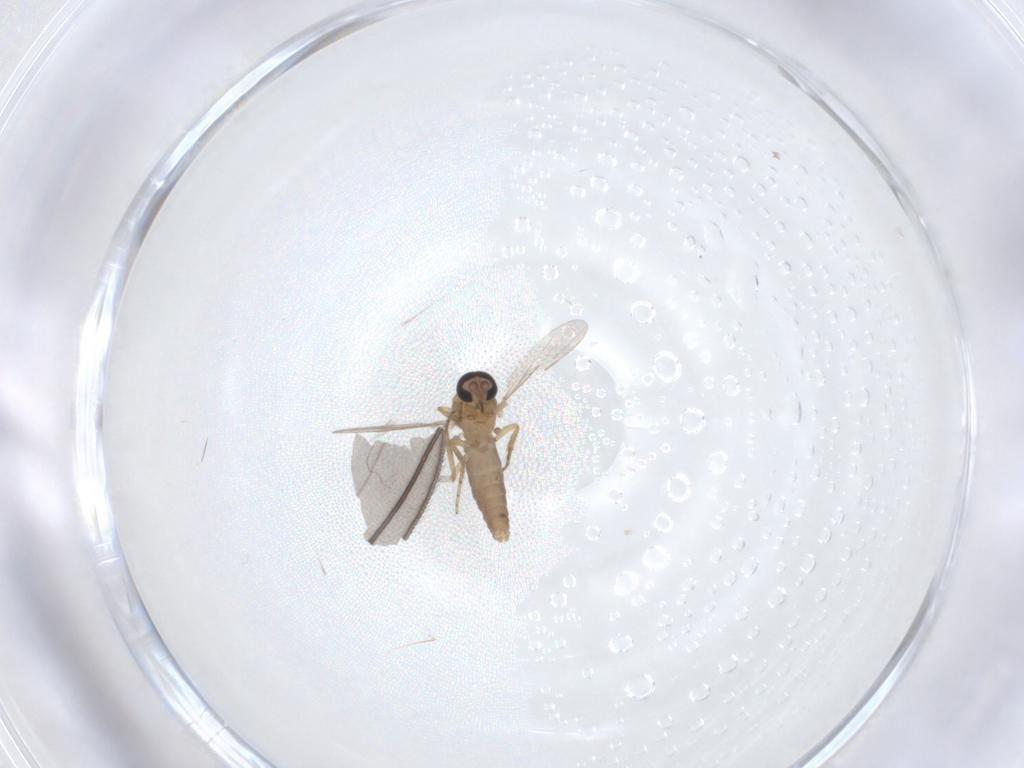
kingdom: Animalia
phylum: Arthropoda
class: Insecta
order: Diptera
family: Ceratopogonidae
